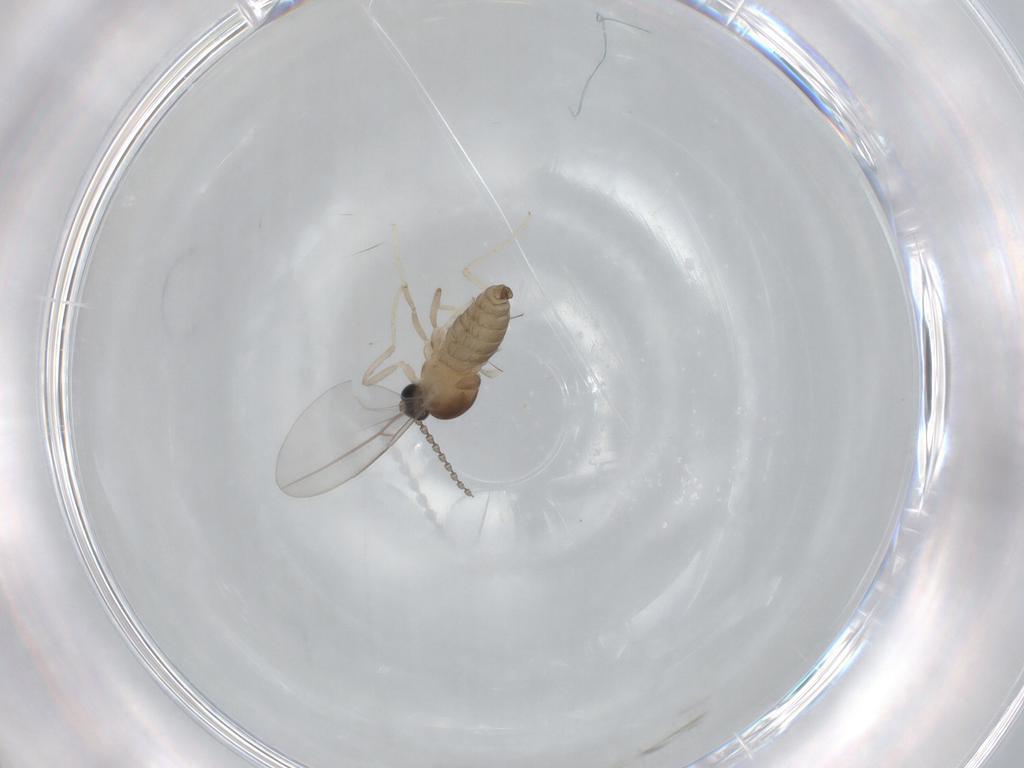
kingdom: Animalia
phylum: Arthropoda
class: Insecta
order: Diptera
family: Cecidomyiidae
